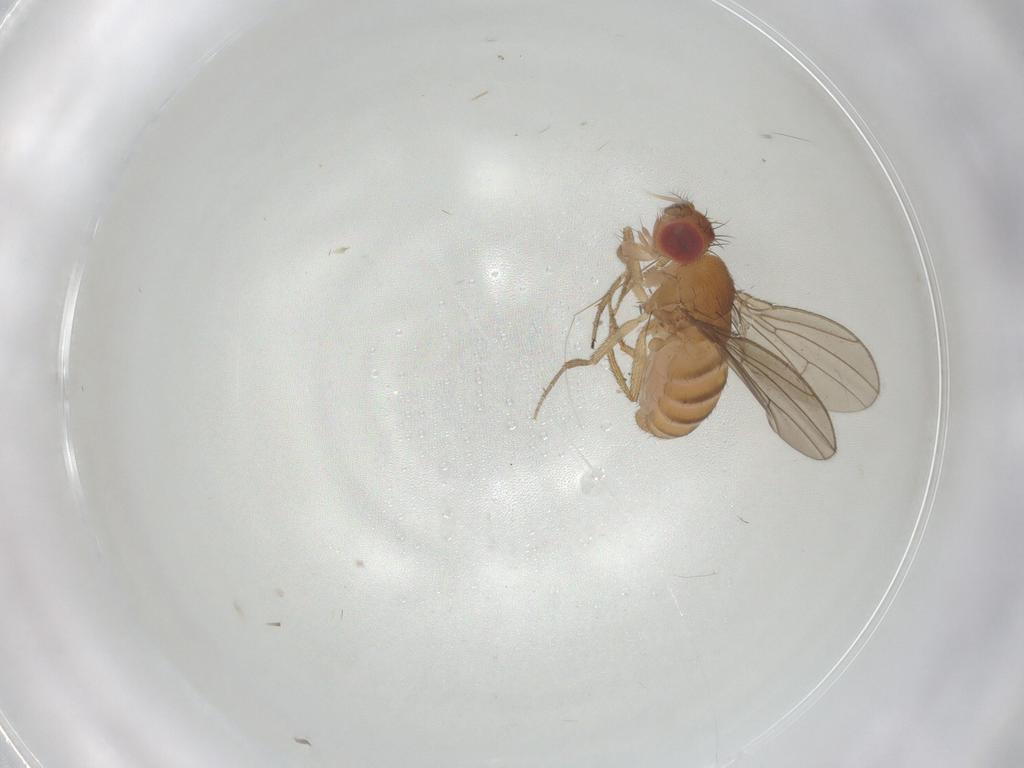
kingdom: Animalia
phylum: Arthropoda
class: Insecta
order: Diptera
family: Drosophilidae
